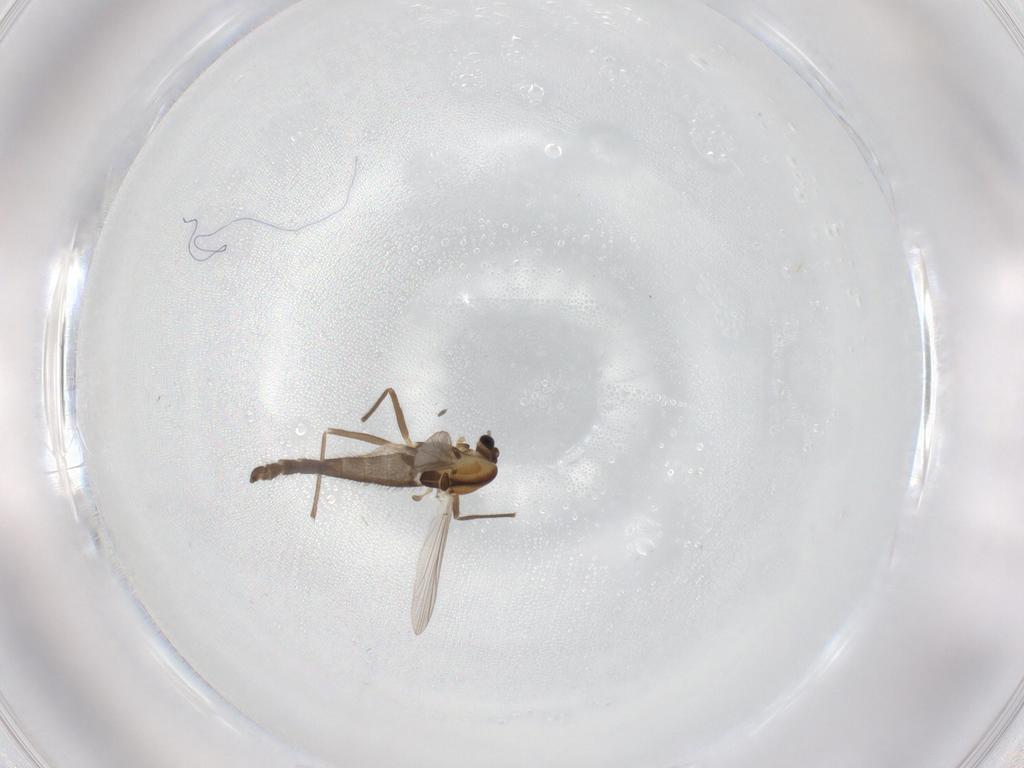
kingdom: Animalia
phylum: Arthropoda
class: Insecta
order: Diptera
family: Chironomidae
